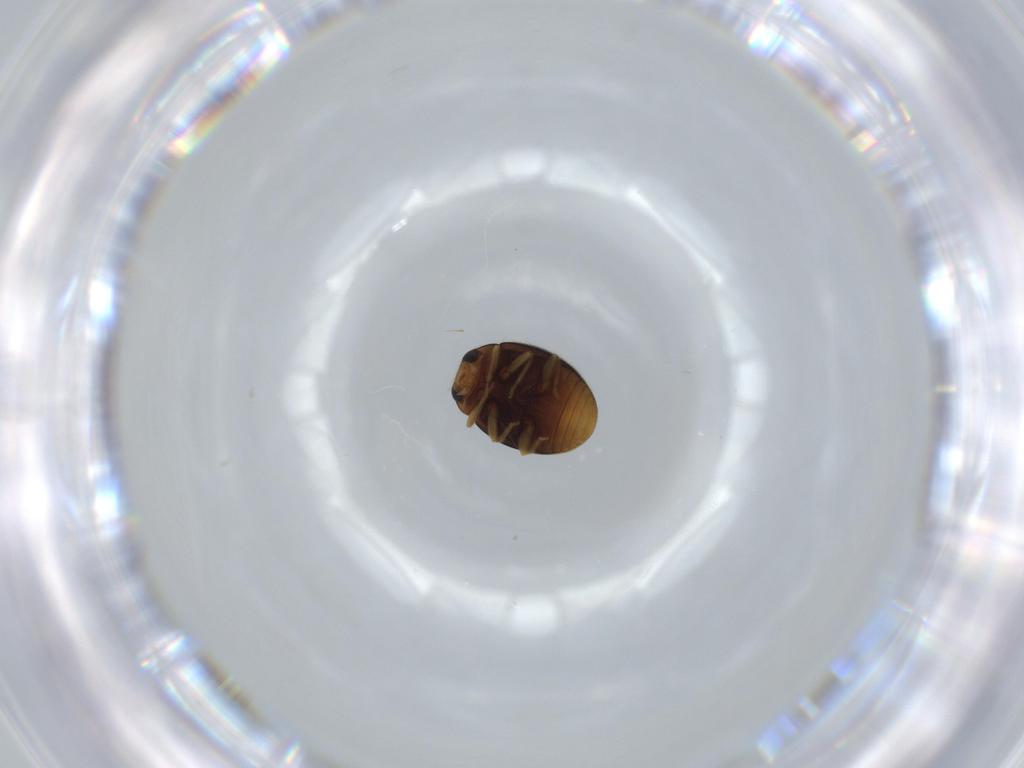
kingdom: Animalia
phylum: Arthropoda
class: Insecta
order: Coleoptera
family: Coccinellidae
